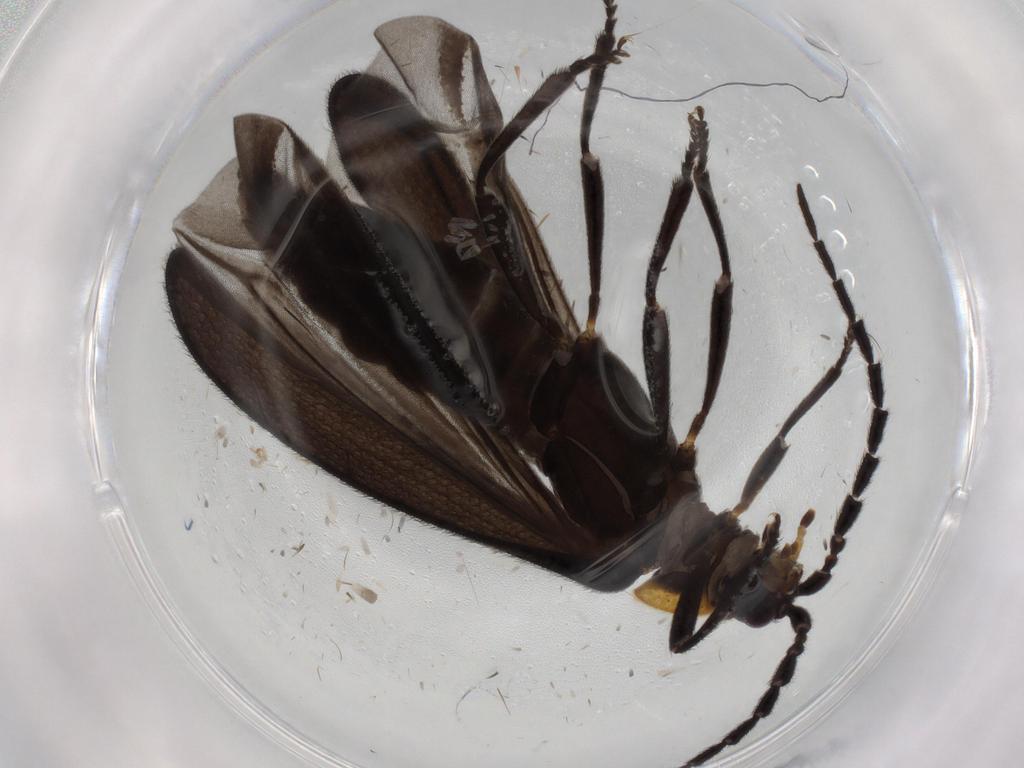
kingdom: Animalia
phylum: Arthropoda
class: Insecta
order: Coleoptera
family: Lycidae
